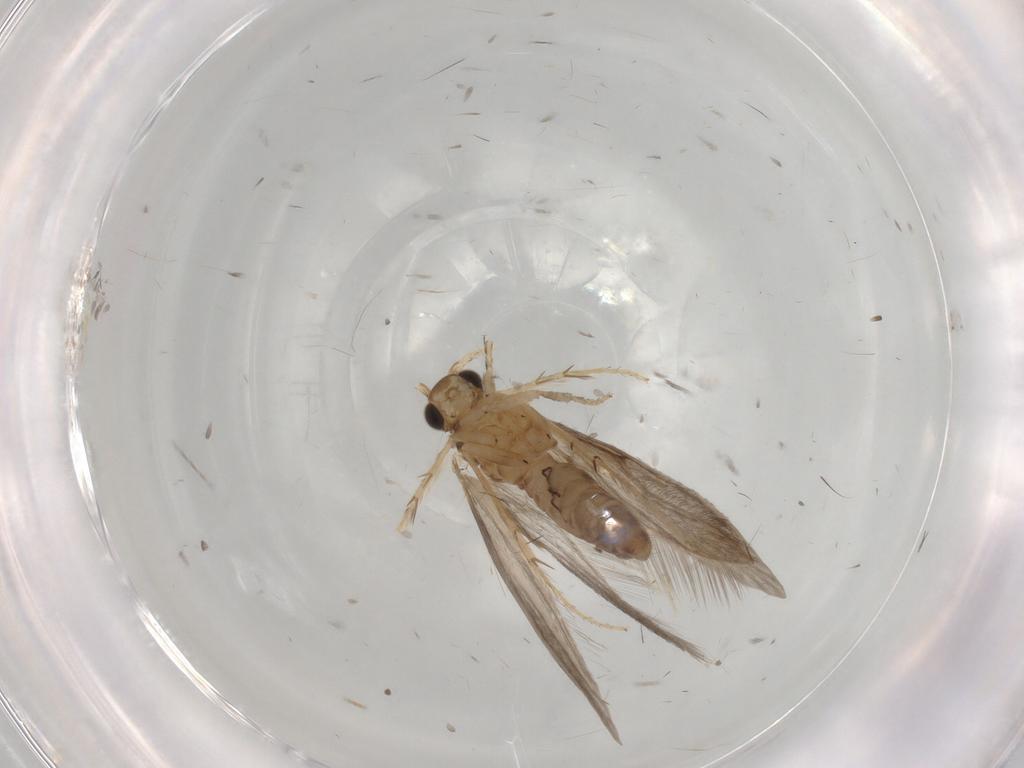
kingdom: Animalia
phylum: Arthropoda
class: Insecta
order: Trichoptera
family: Glossosomatidae
